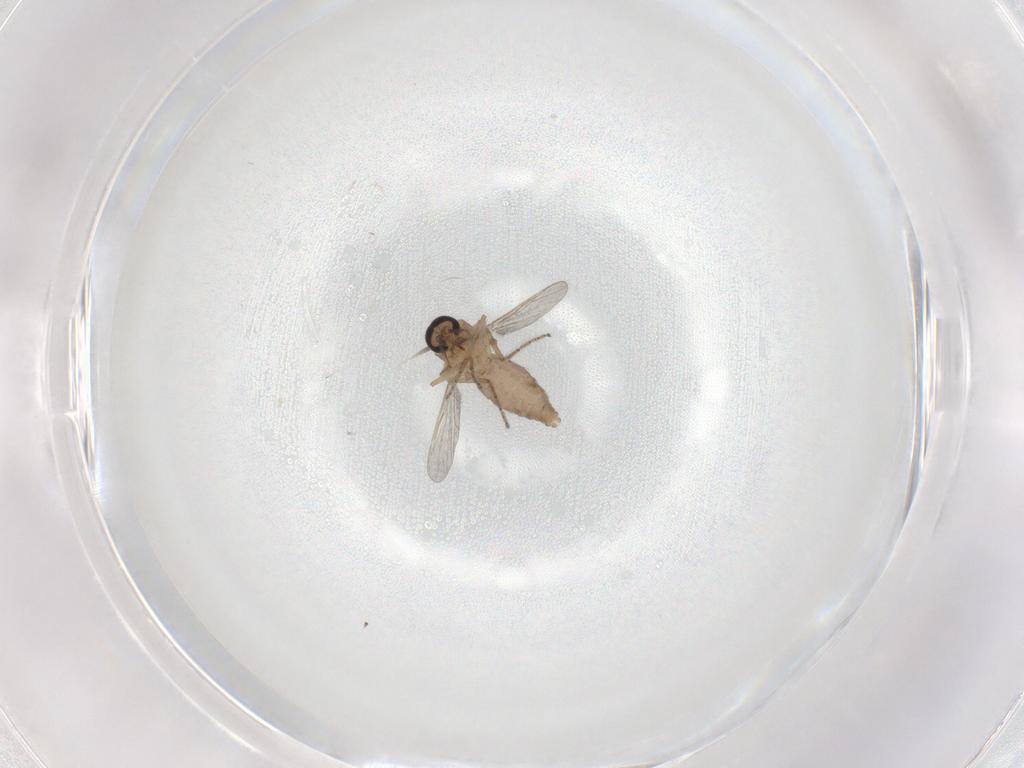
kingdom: Animalia
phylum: Arthropoda
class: Insecta
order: Diptera
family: Ceratopogonidae
